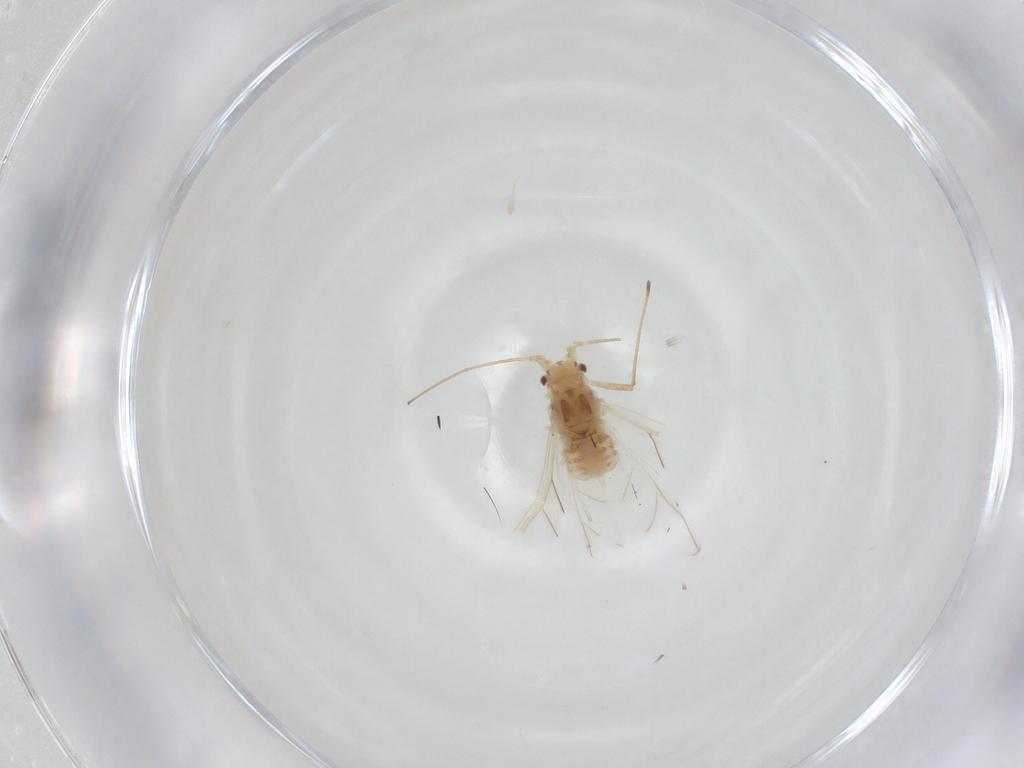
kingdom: Animalia
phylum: Arthropoda
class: Insecta
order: Hemiptera
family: Aphididae
